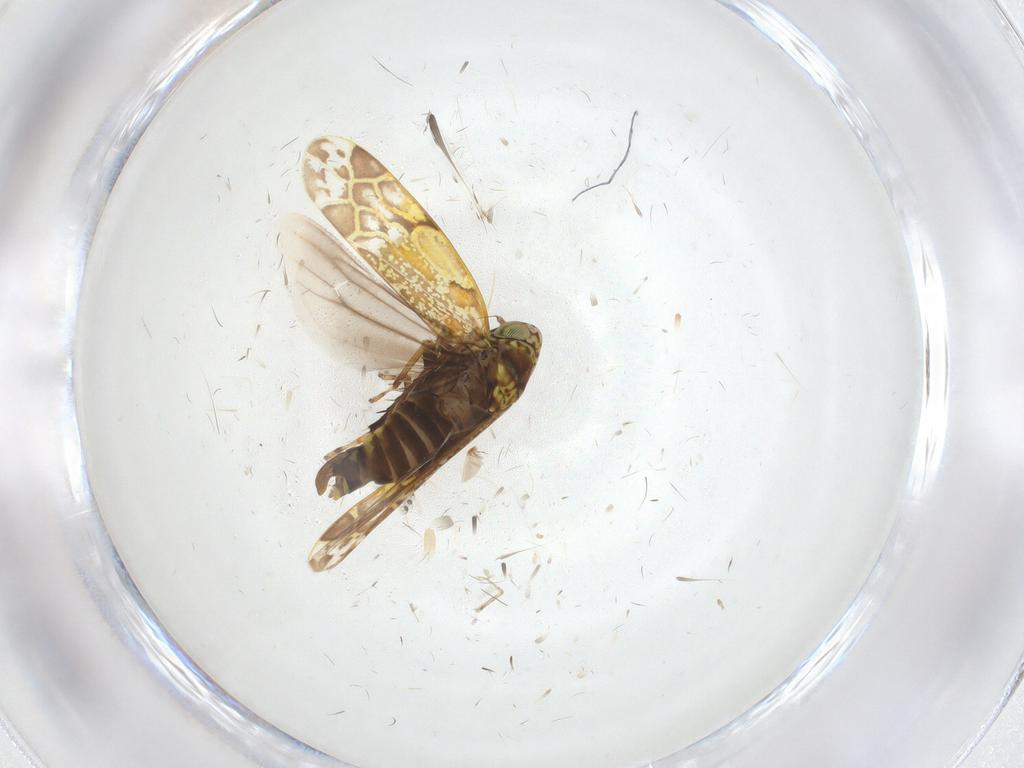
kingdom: Animalia
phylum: Arthropoda
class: Insecta
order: Hemiptera
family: Cicadellidae
